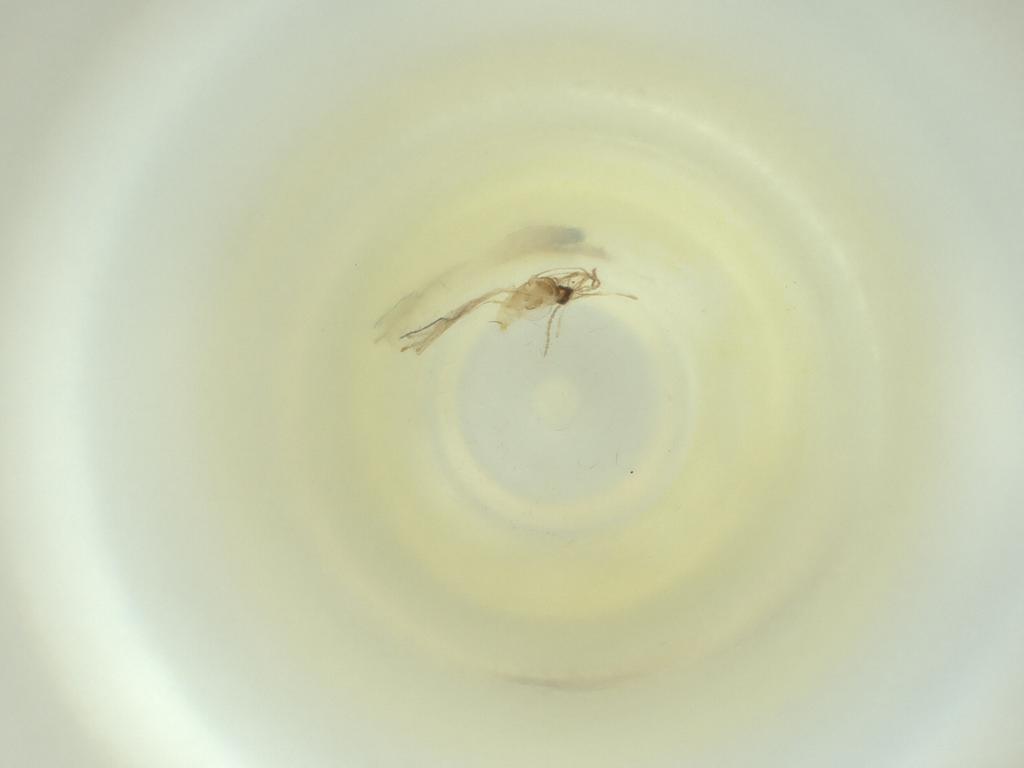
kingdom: Animalia
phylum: Arthropoda
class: Insecta
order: Diptera
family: Cecidomyiidae
